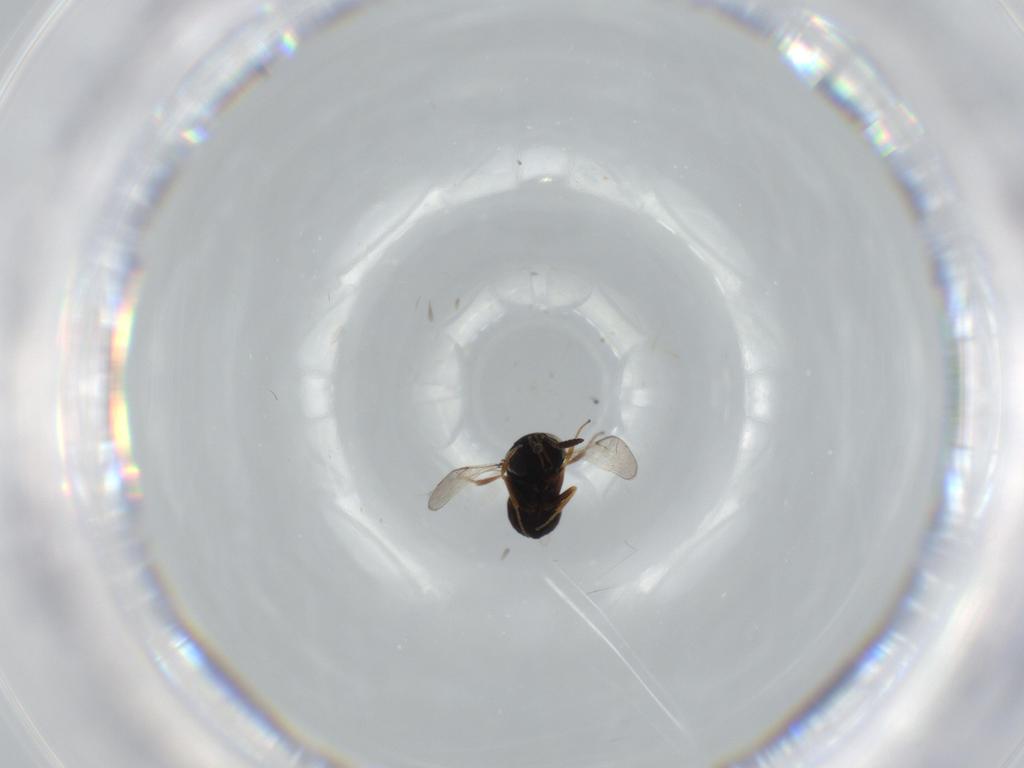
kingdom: Animalia
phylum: Arthropoda
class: Insecta
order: Hymenoptera
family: Scelionidae
